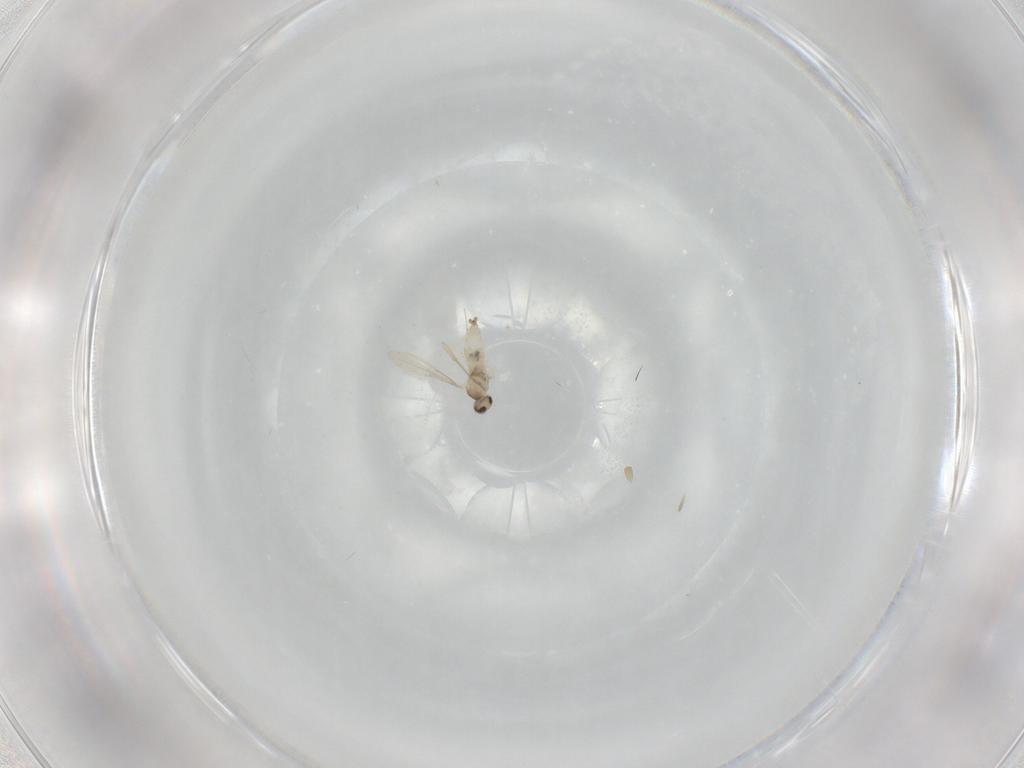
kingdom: Animalia
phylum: Arthropoda
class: Insecta
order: Diptera
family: Cecidomyiidae
